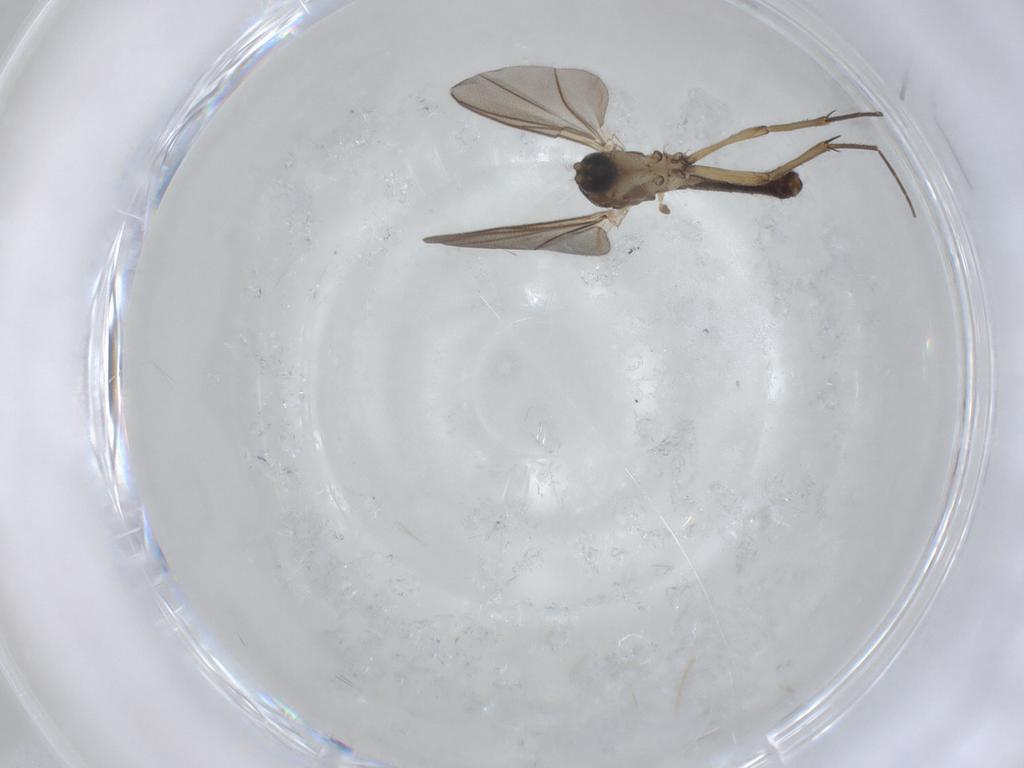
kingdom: Animalia
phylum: Arthropoda
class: Insecta
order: Diptera
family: Mycetophilidae
